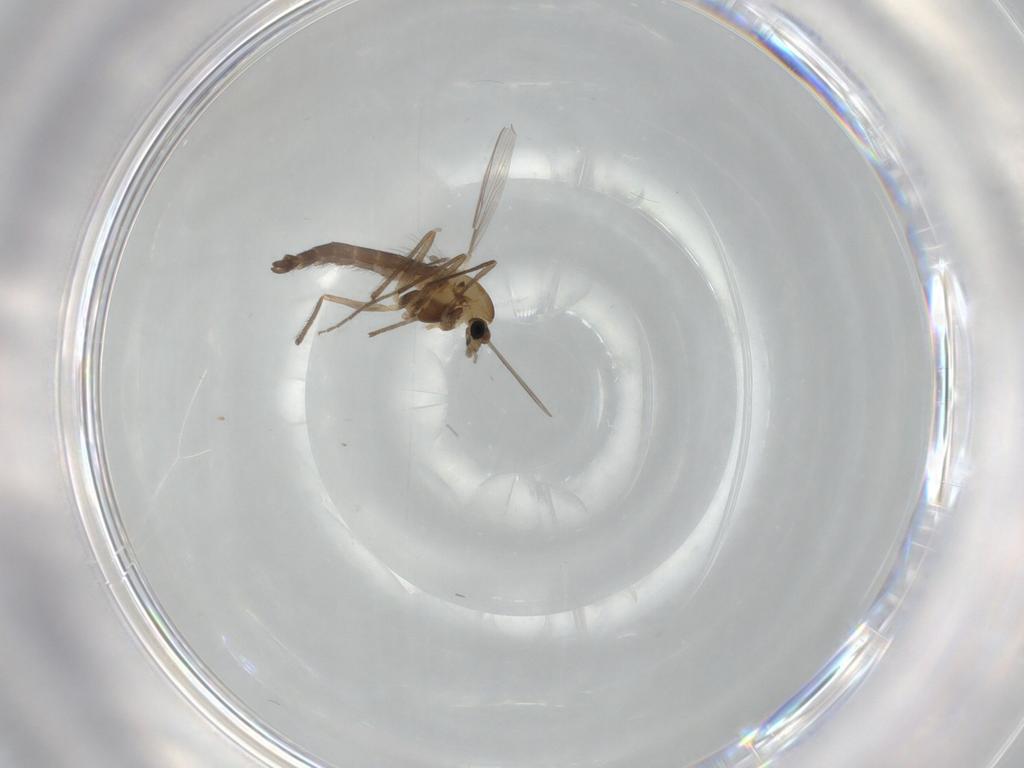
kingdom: Animalia
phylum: Arthropoda
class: Insecta
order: Diptera
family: Chironomidae
